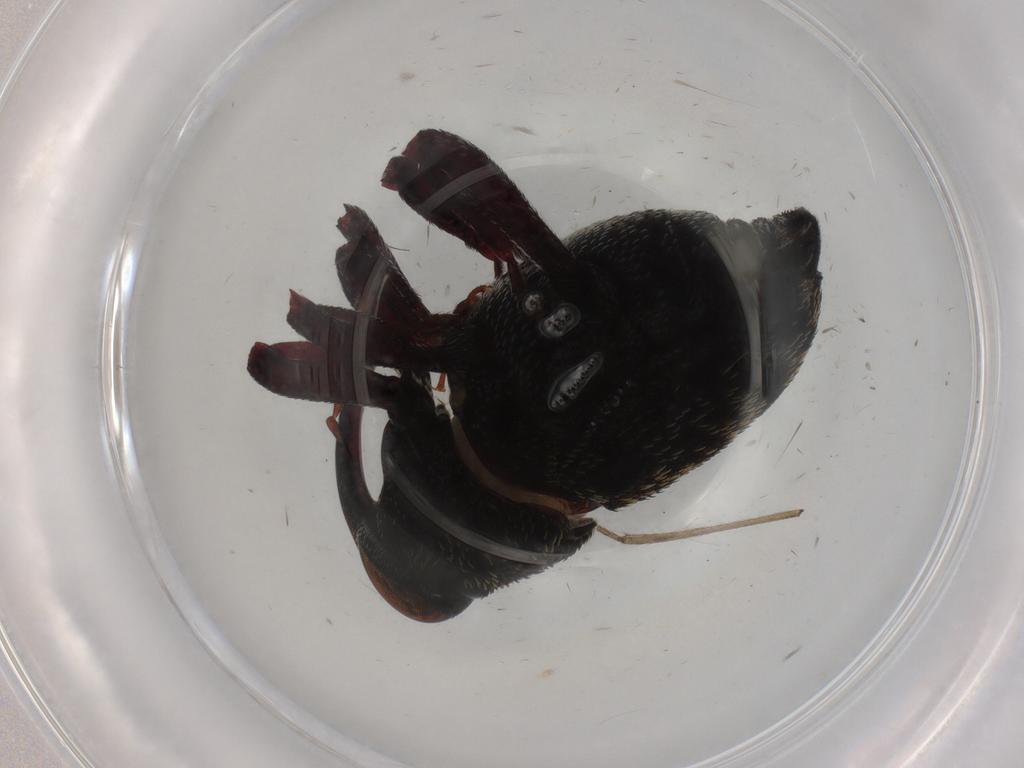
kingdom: Animalia
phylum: Arthropoda
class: Insecta
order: Coleoptera
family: Curculionidae
